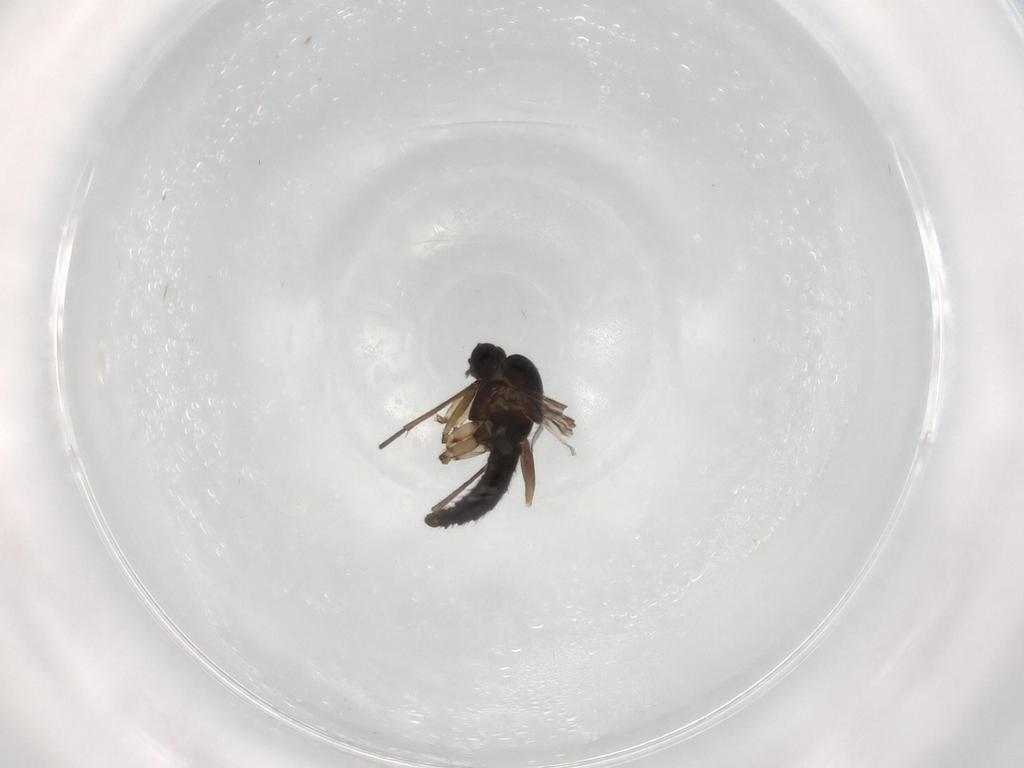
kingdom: Animalia
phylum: Arthropoda
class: Insecta
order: Diptera
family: Sciaridae
